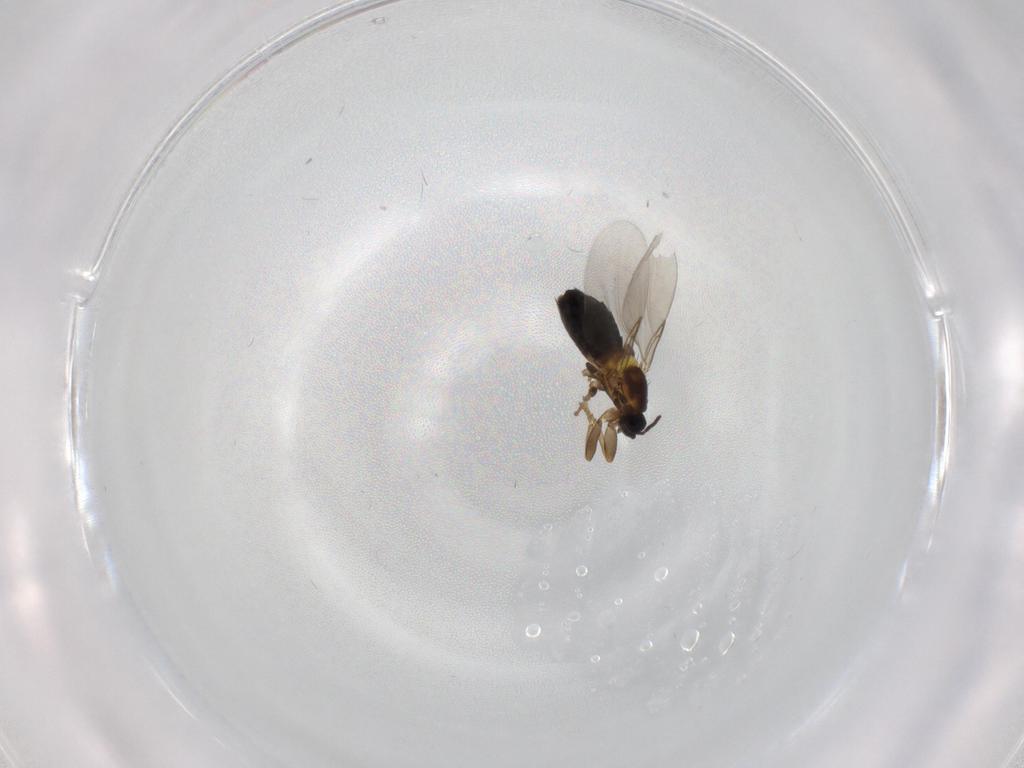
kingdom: Animalia
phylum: Arthropoda
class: Insecta
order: Diptera
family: Scatopsidae
